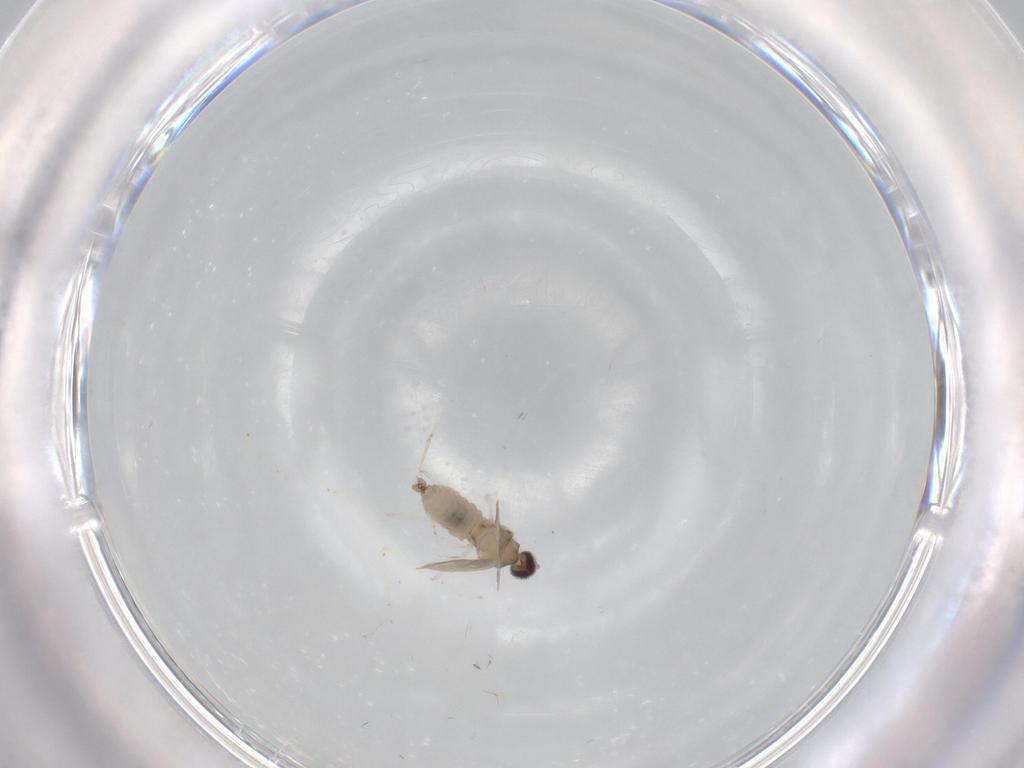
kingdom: Animalia
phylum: Arthropoda
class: Insecta
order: Diptera
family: Cecidomyiidae
